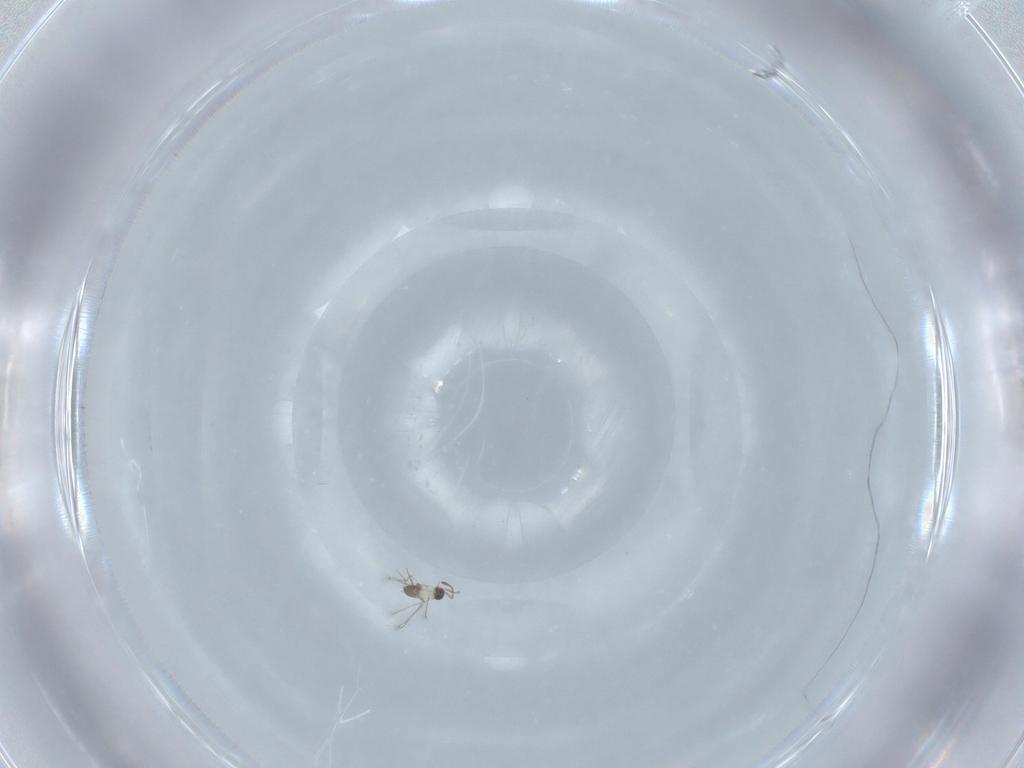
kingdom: Animalia
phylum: Arthropoda
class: Insecta
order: Hymenoptera
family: Mymaridae
